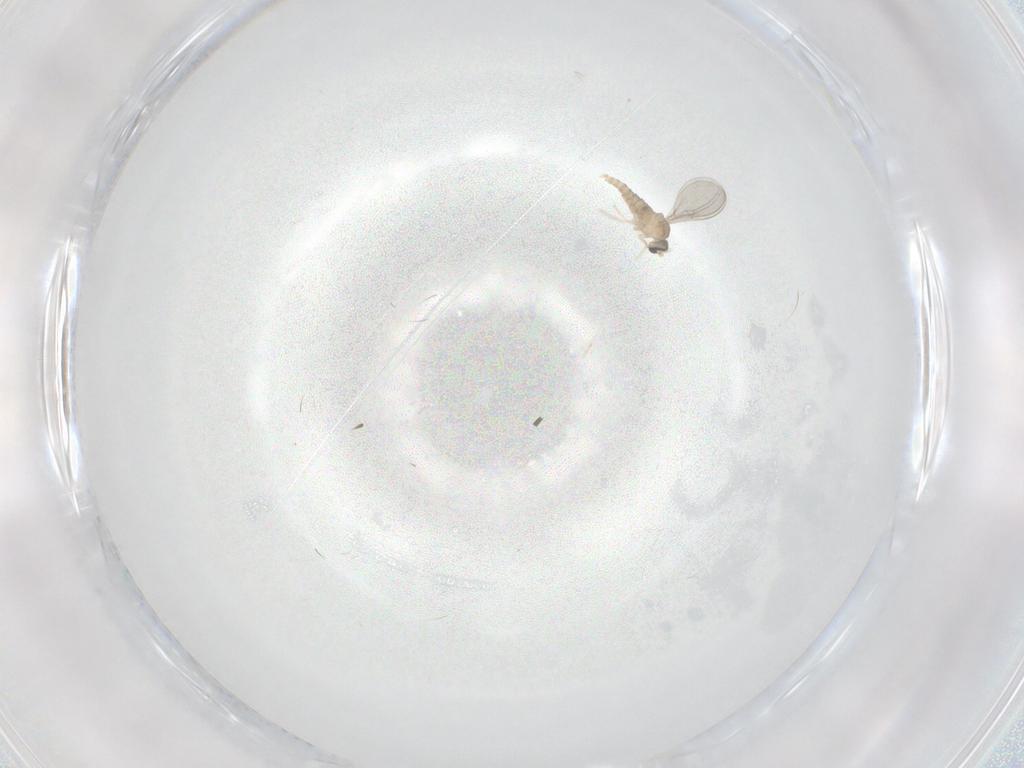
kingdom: Animalia
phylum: Arthropoda
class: Insecta
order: Diptera
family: Cecidomyiidae
